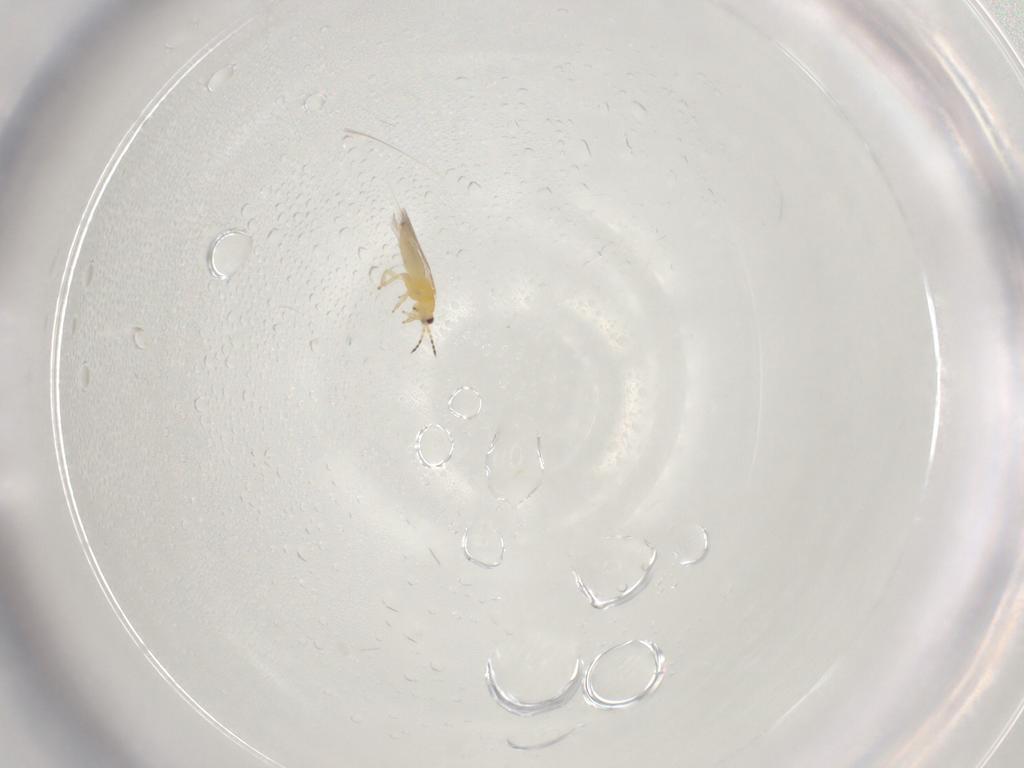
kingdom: Animalia
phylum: Arthropoda
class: Insecta
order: Thysanoptera
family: Thripidae
